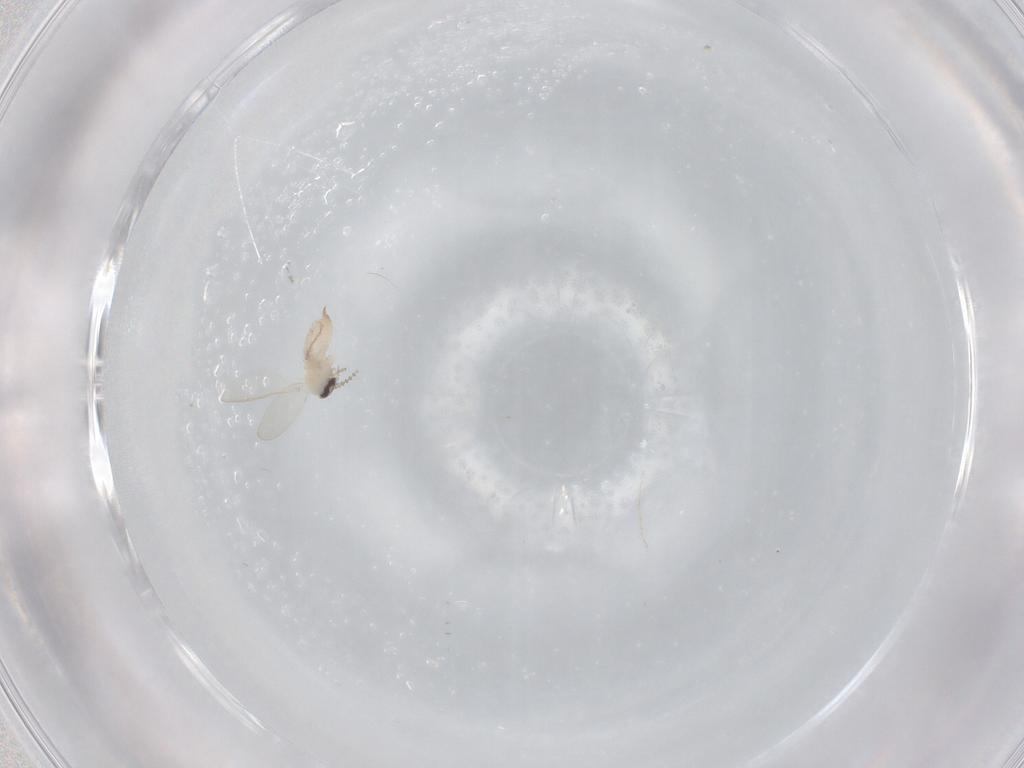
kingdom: Animalia
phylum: Arthropoda
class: Insecta
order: Diptera
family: Psychodidae
